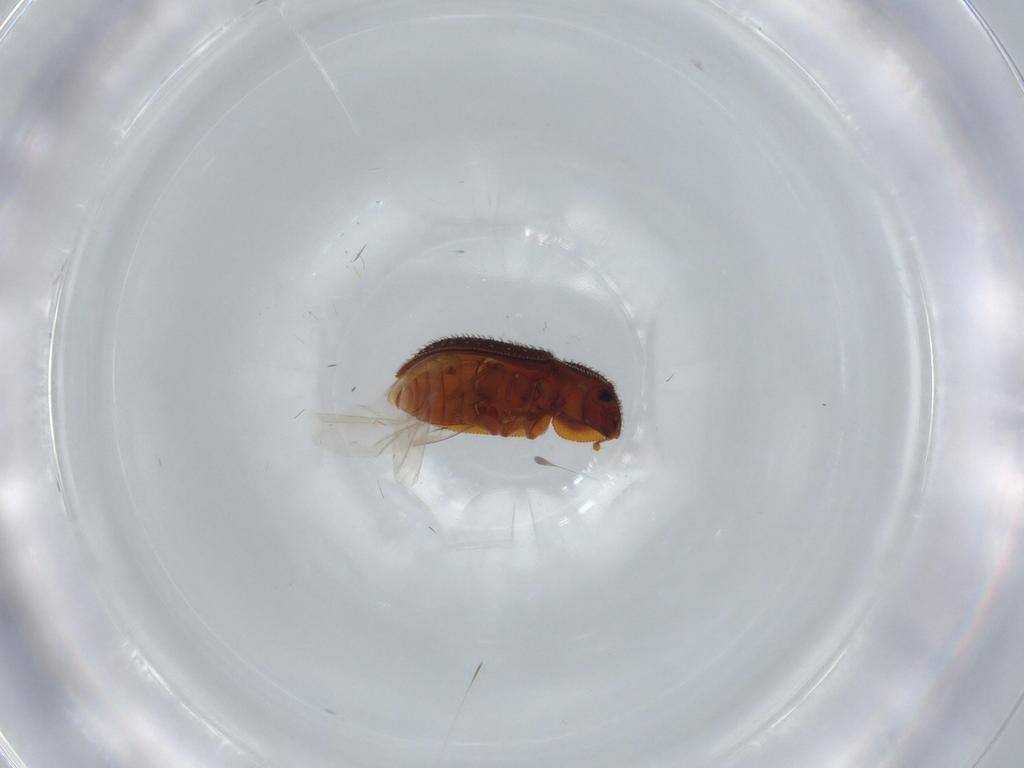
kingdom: Animalia
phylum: Arthropoda
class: Insecta
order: Coleoptera
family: Zopheridae
